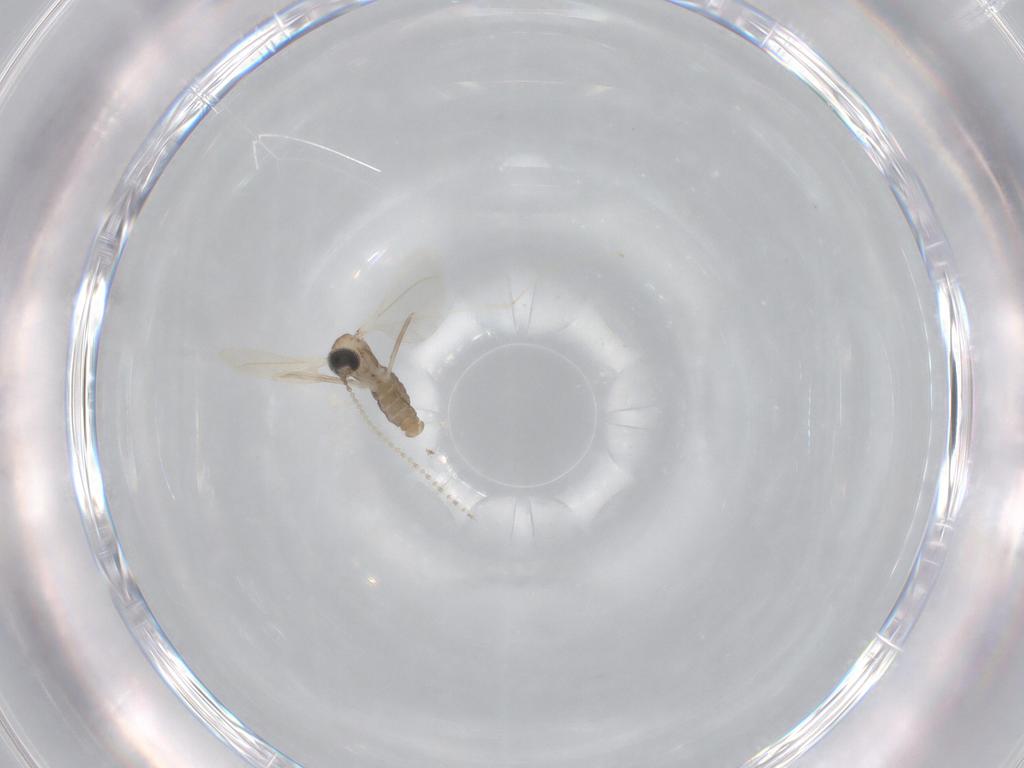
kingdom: Animalia
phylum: Arthropoda
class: Insecta
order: Diptera
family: Cecidomyiidae
